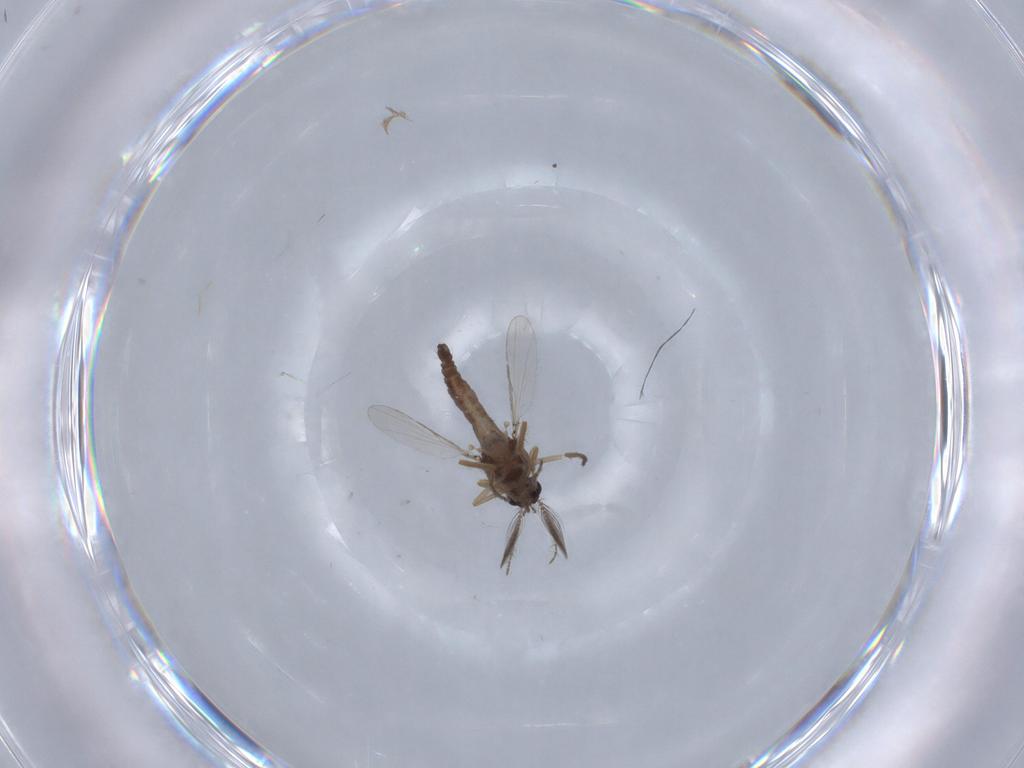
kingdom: Animalia
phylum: Arthropoda
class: Insecta
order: Diptera
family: Ceratopogonidae
